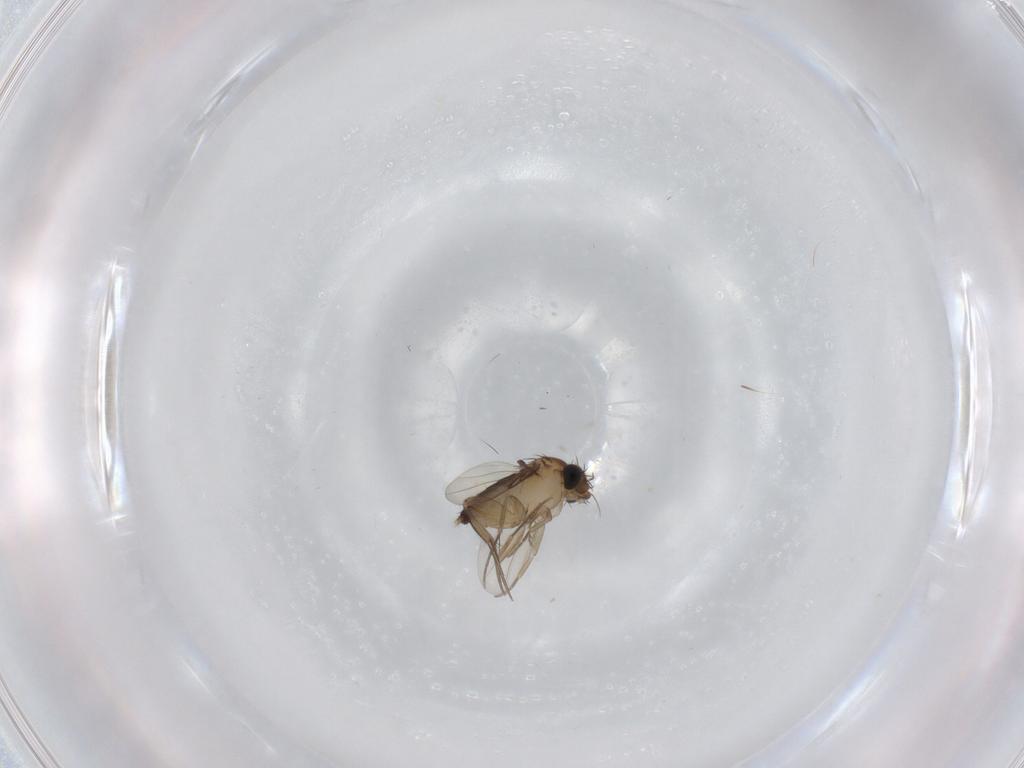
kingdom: Animalia
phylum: Arthropoda
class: Insecta
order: Diptera
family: Phoridae
